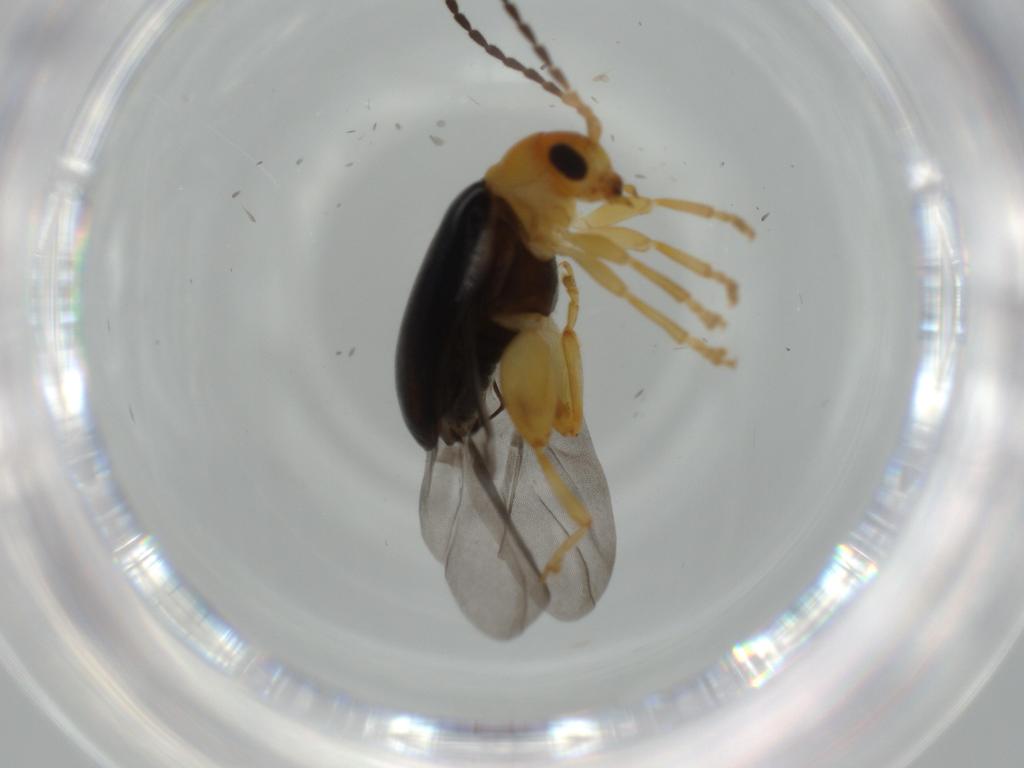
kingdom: Animalia
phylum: Arthropoda
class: Insecta
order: Coleoptera
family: Chrysomelidae
